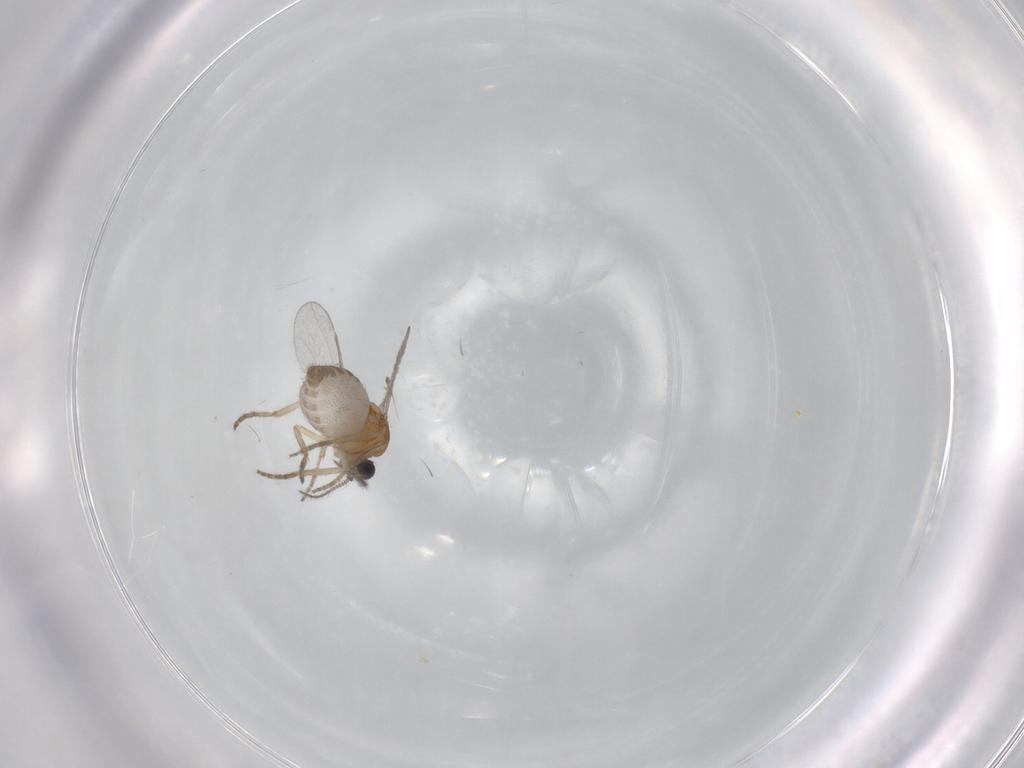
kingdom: Animalia
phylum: Arthropoda
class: Insecta
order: Diptera
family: Ceratopogonidae
